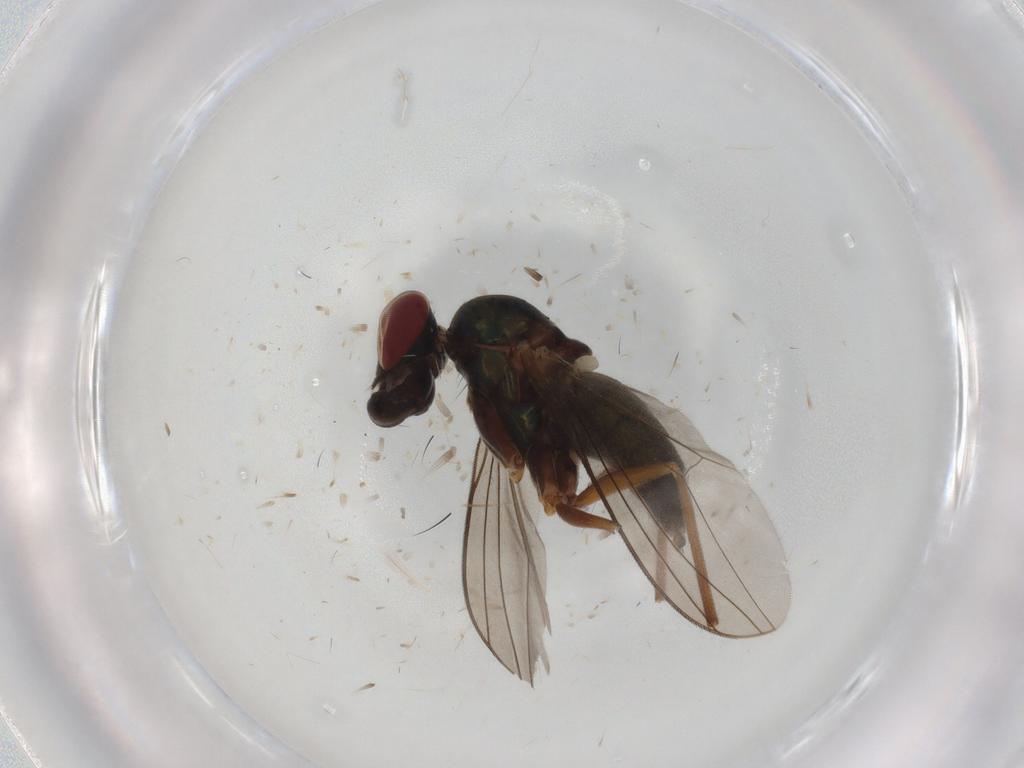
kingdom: Animalia
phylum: Arthropoda
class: Insecta
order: Diptera
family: Dolichopodidae
